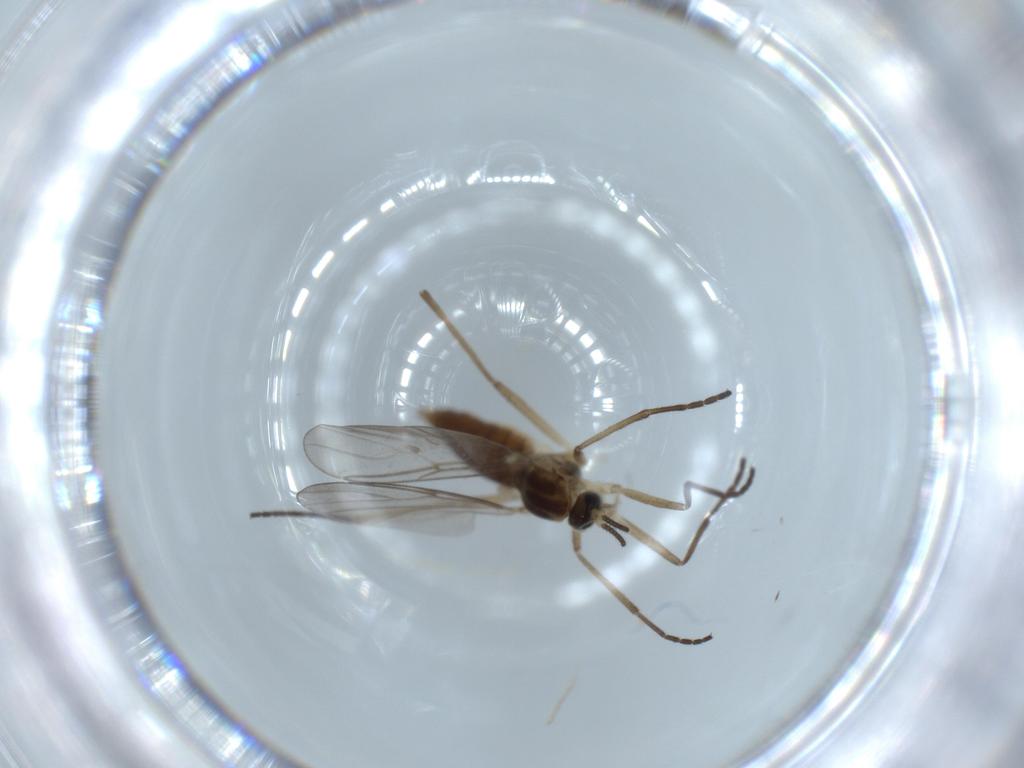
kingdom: Animalia
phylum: Arthropoda
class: Insecta
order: Diptera
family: Cecidomyiidae
